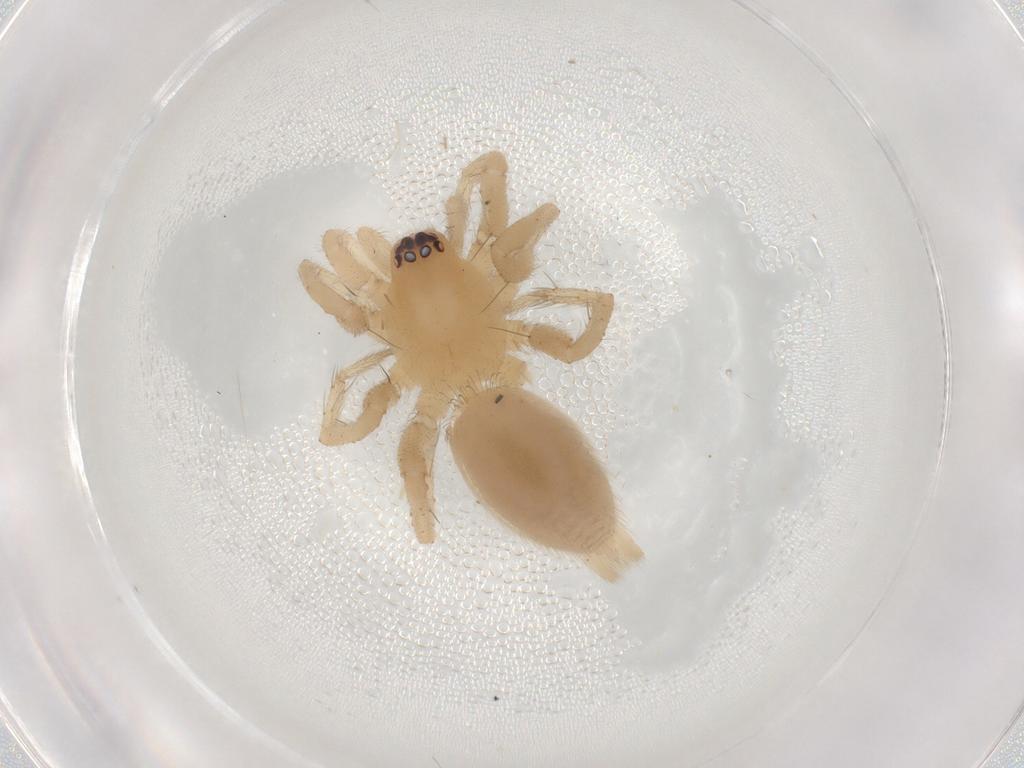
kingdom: Animalia
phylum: Arthropoda
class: Arachnida
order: Araneae
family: Gnaphosidae
